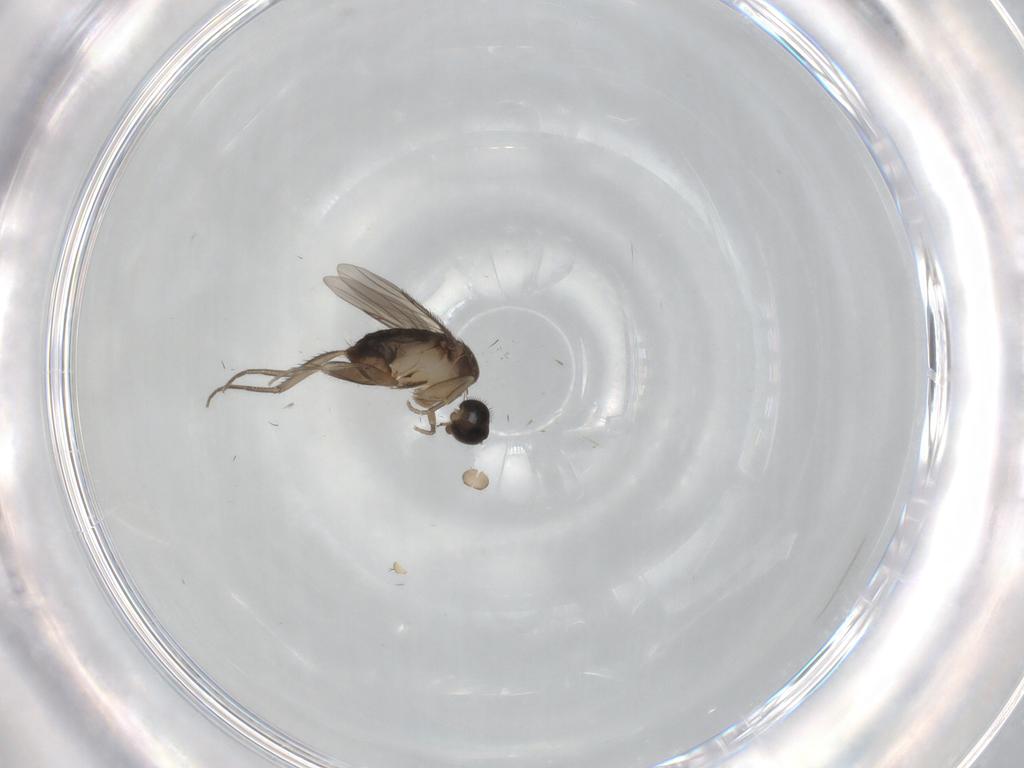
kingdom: Animalia
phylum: Arthropoda
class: Insecta
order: Diptera
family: Phoridae
